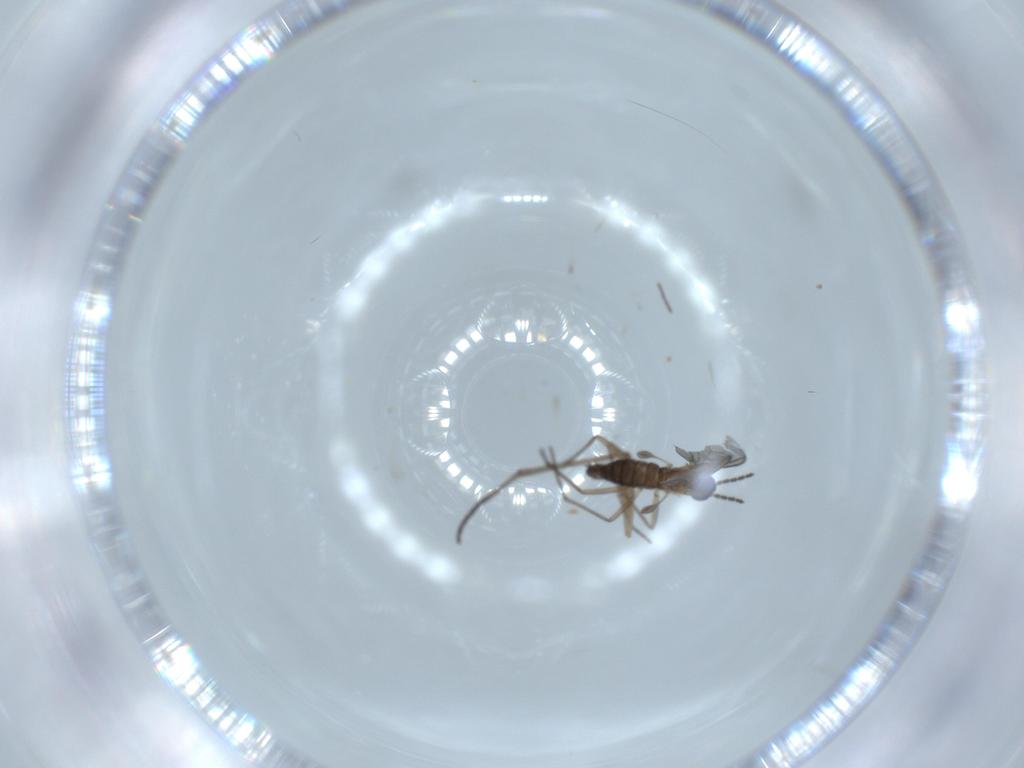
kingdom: Animalia
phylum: Arthropoda
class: Insecta
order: Diptera
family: Sciaridae
